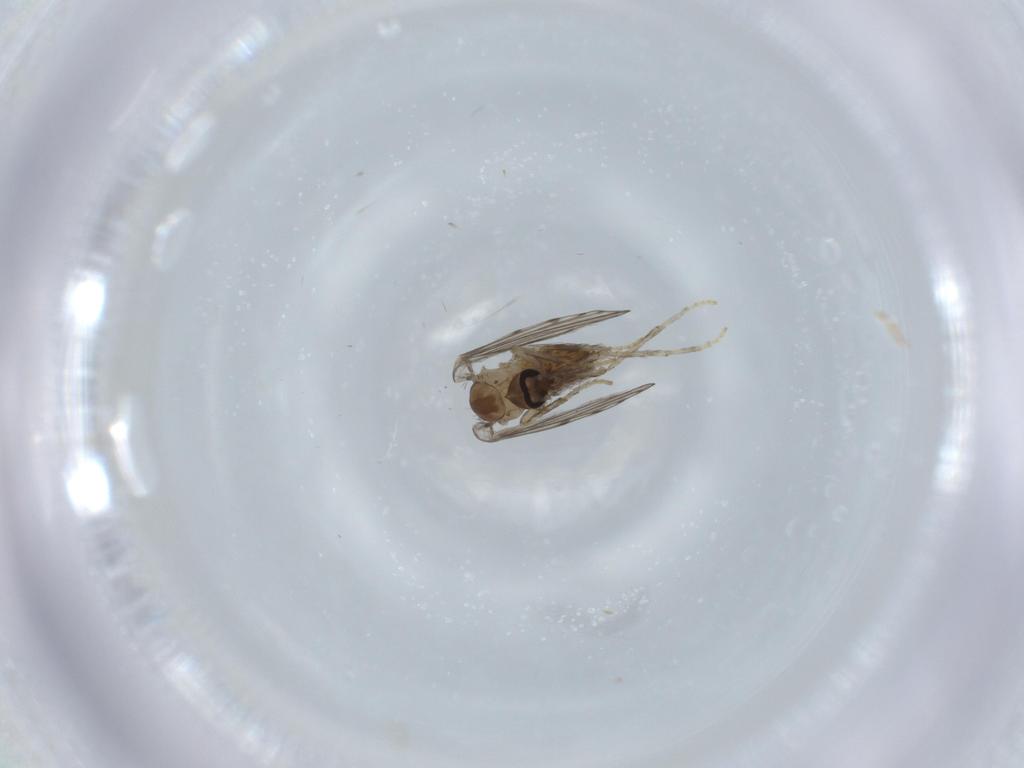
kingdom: Animalia
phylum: Arthropoda
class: Insecta
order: Diptera
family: Psychodidae
